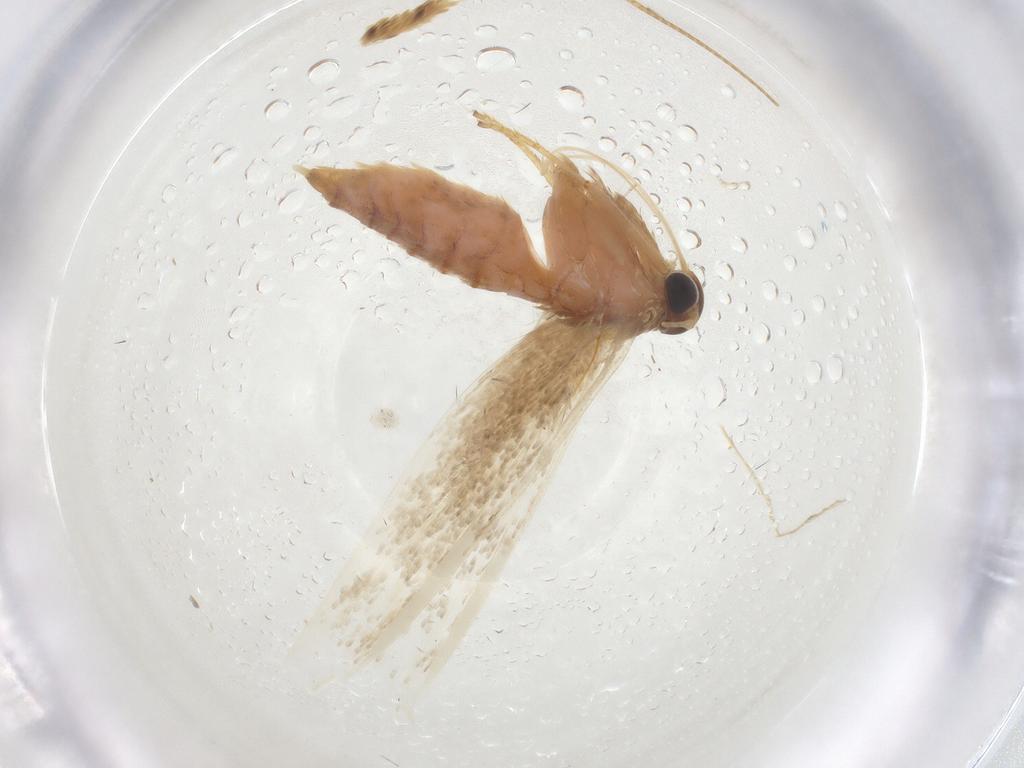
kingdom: Animalia
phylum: Arthropoda
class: Insecta
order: Lepidoptera
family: Blastobasidae
